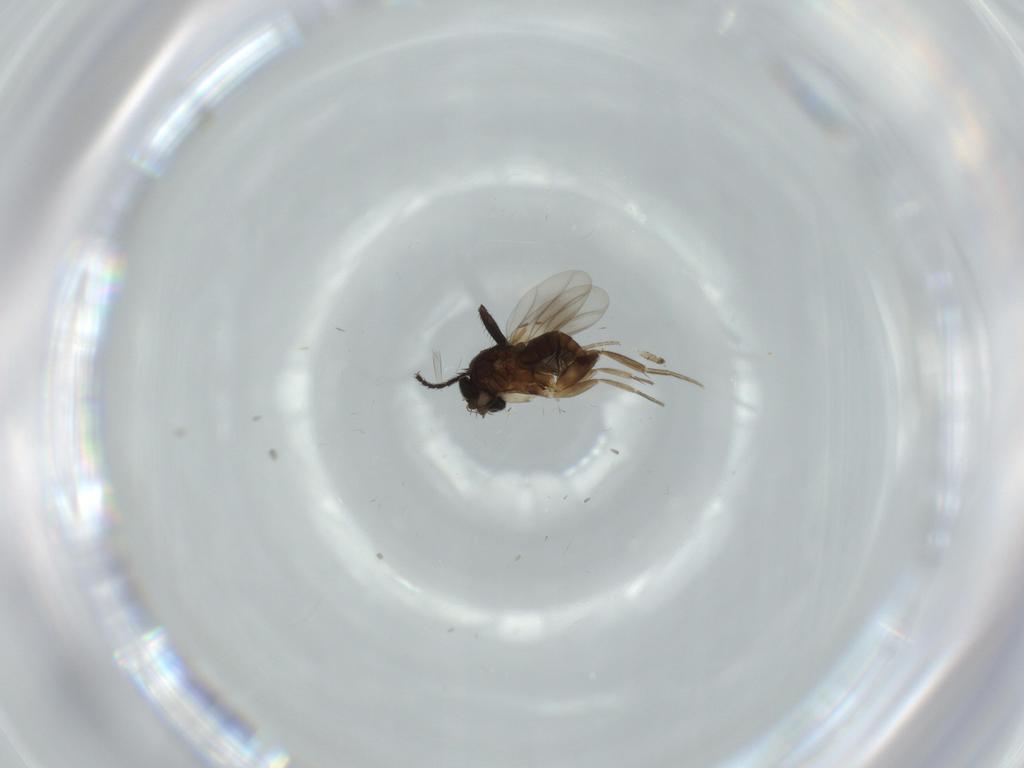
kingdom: Animalia
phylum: Arthropoda
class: Insecta
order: Diptera
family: Phoridae
